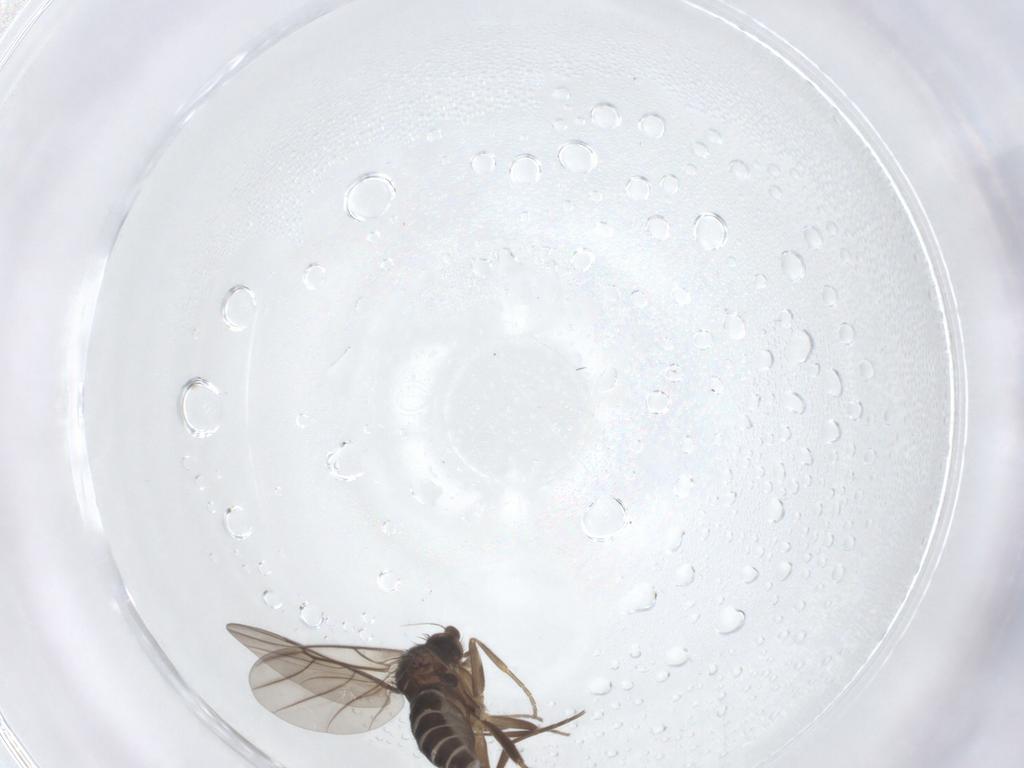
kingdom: Animalia
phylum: Arthropoda
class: Insecta
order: Diptera
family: Phoridae
